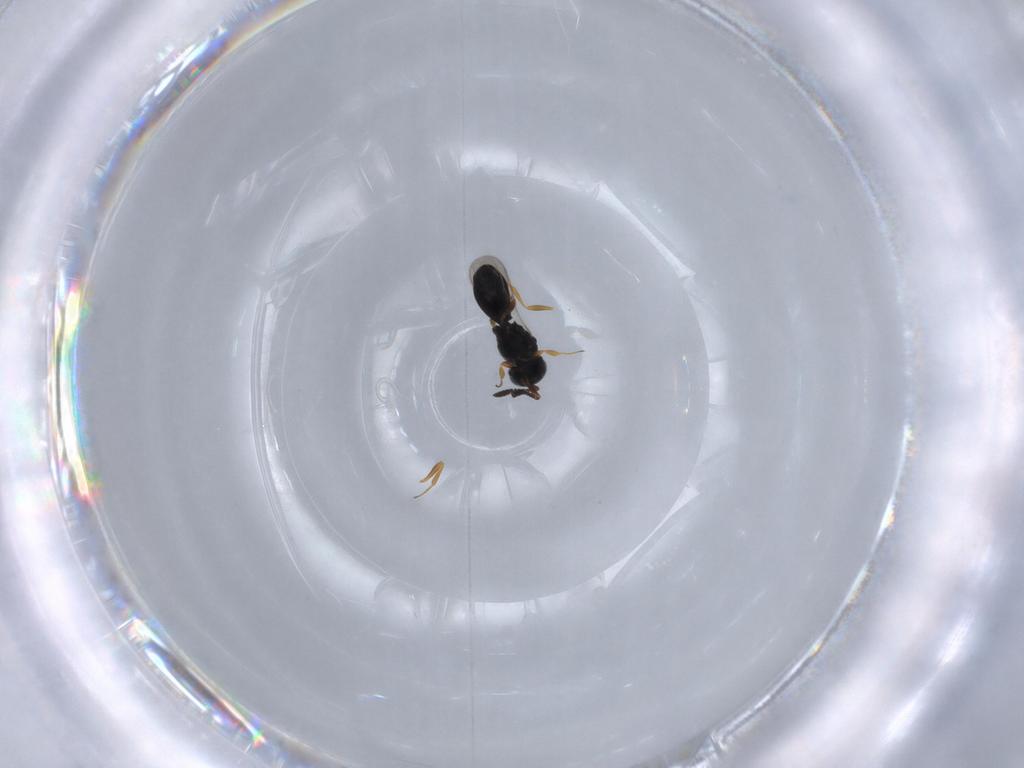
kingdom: Animalia
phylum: Arthropoda
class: Insecta
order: Hymenoptera
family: Scelionidae
